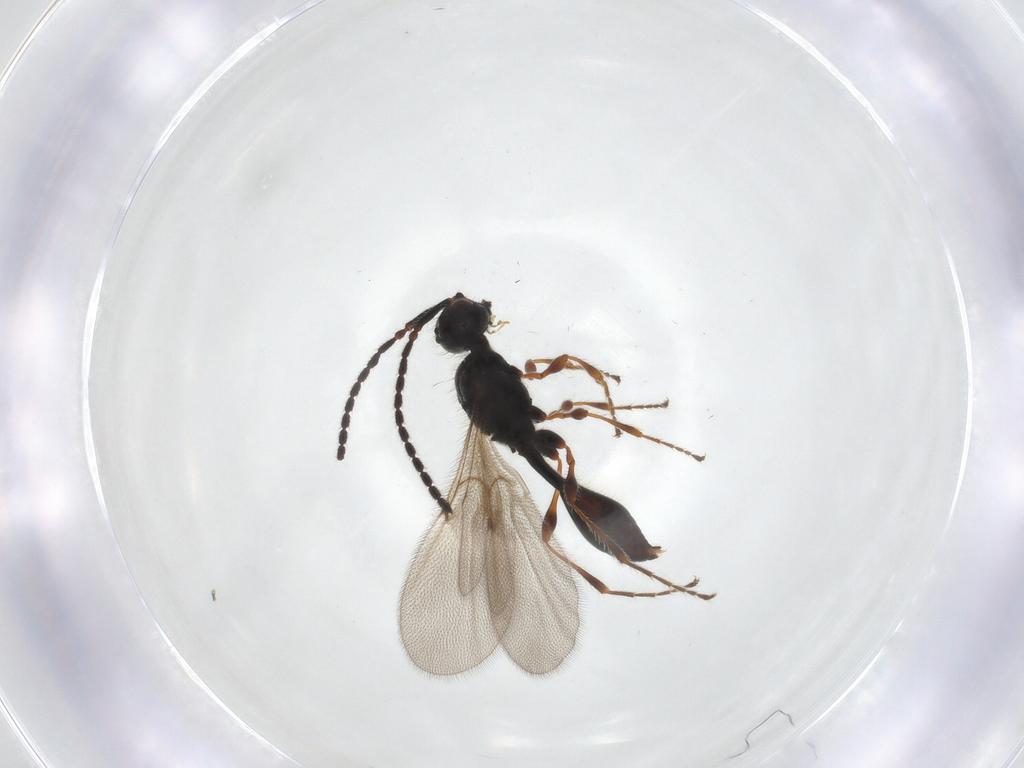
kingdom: Animalia
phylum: Arthropoda
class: Insecta
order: Hymenoptera
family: Diapriidae
